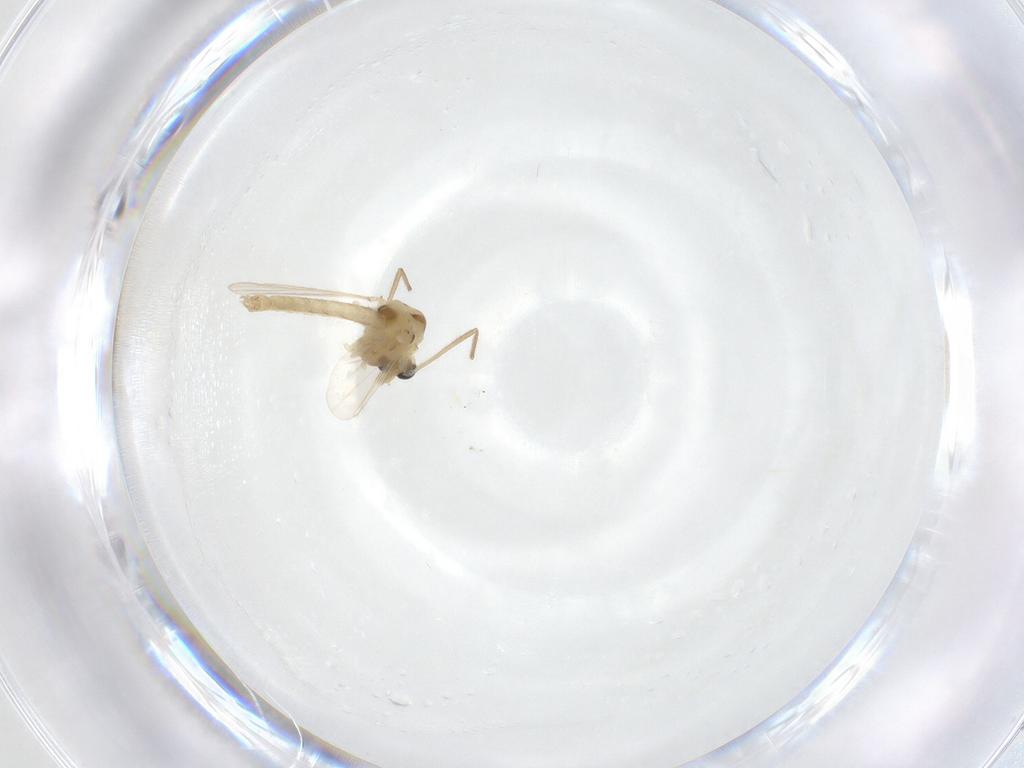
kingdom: Animalia
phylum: Arthropoda
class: Insecta
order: Diptera
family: Chironomidae
